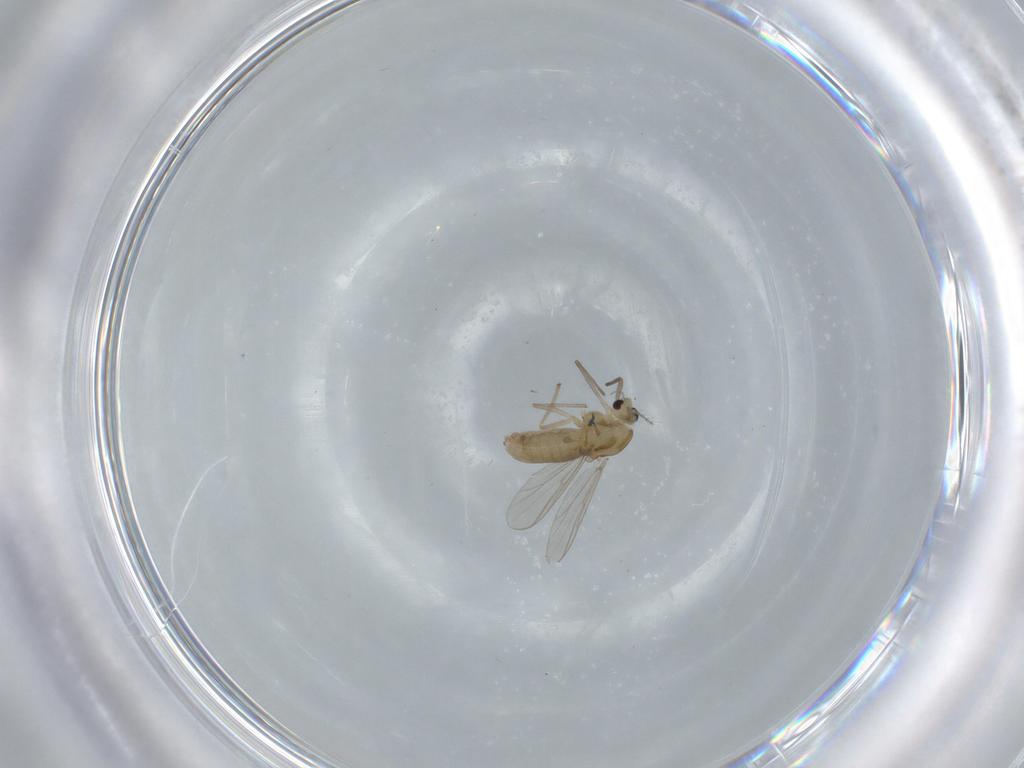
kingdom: Animalia
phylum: Arthropoda
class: Insecta
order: Diptera
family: Chironomidae
